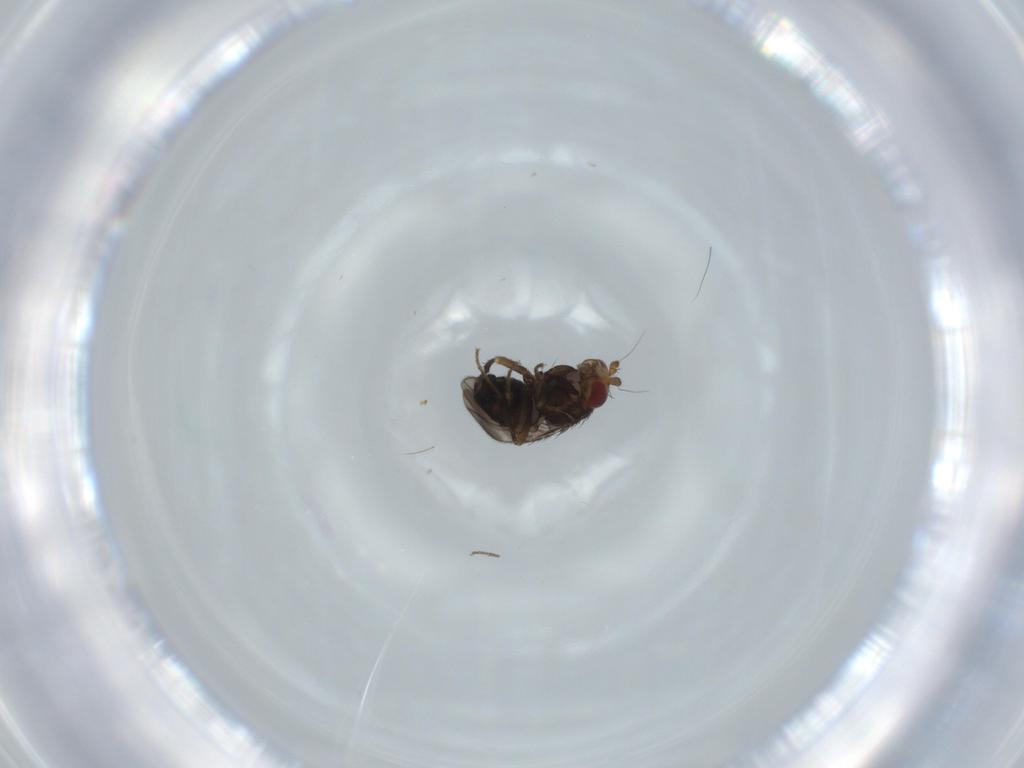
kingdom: Animalia
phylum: Arthropoda
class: Insecta
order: Diptera
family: Sphaeroceridae
